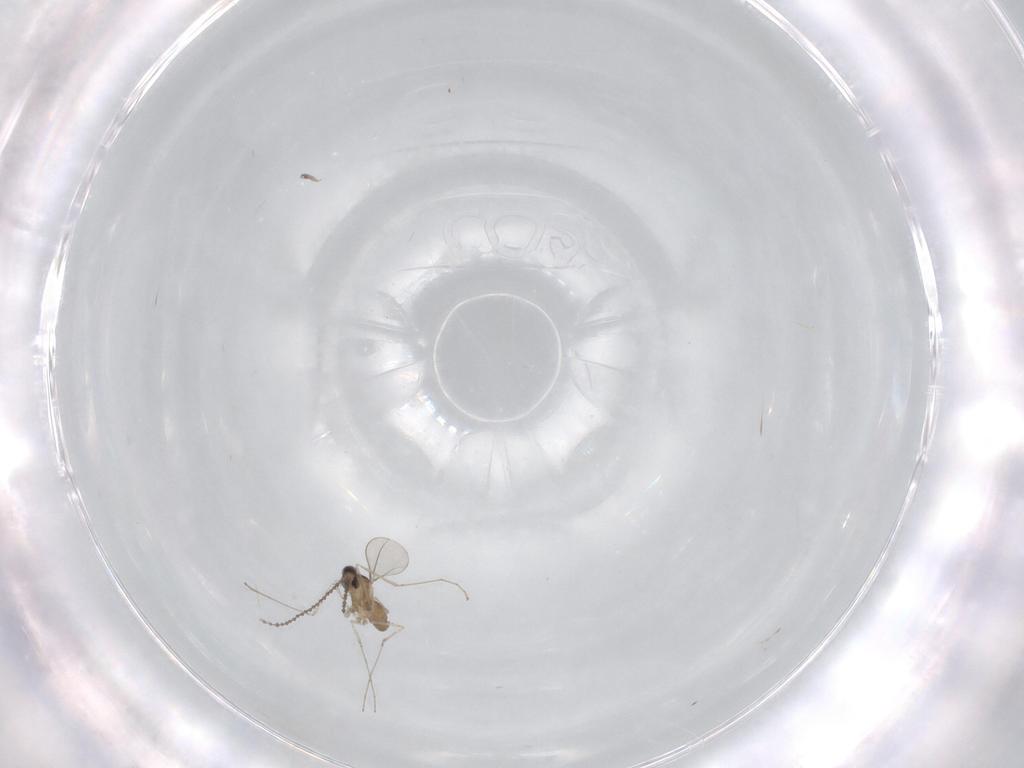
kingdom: Animalia
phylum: Arthropoda
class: Insecta
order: Diptera
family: Cecidomyiidae
